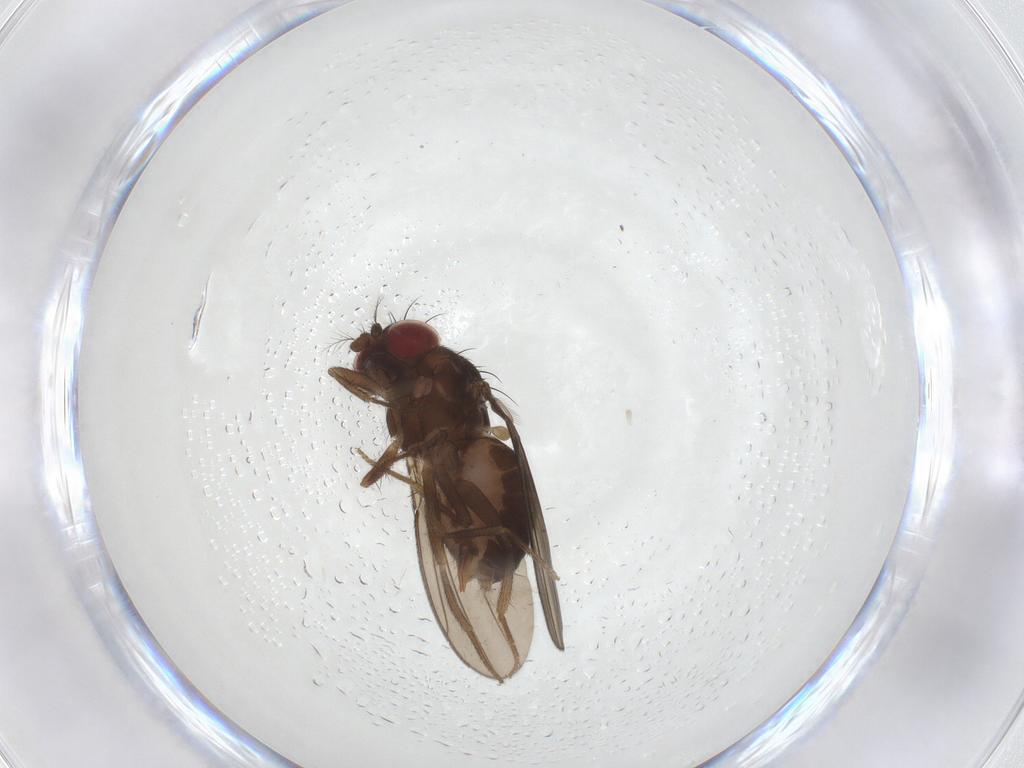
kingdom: Animalia
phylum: Arthropoda
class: Insecta
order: Diptera
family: Drosophilidae
